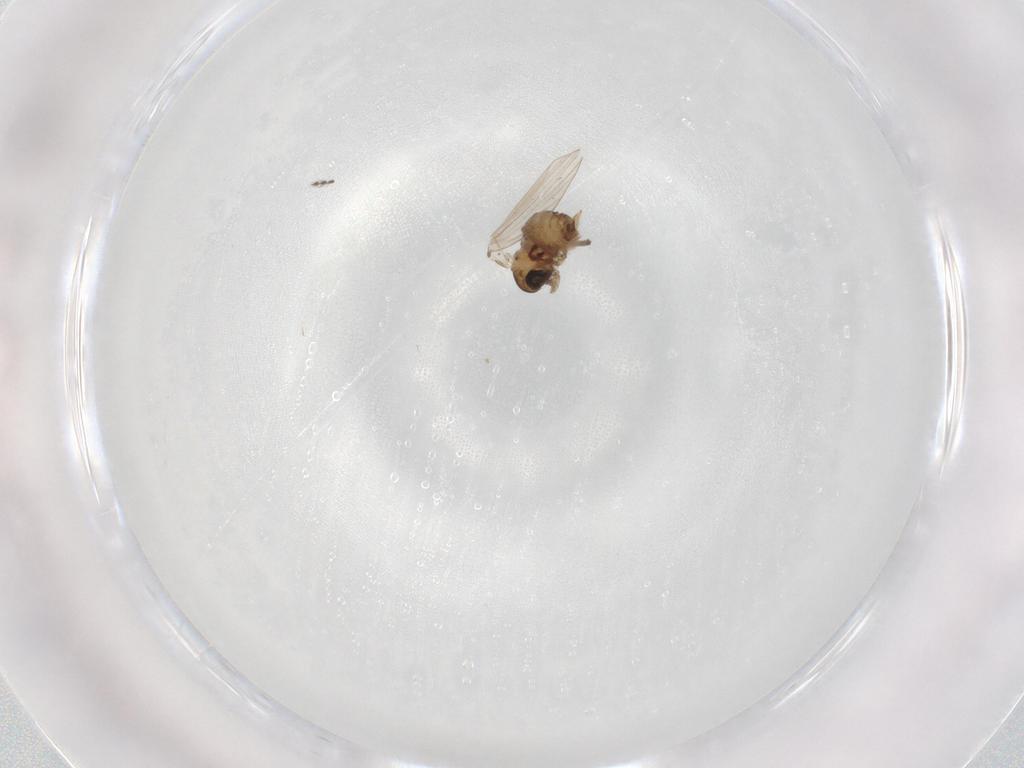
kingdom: Animalia
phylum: Arthropoda
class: Insecta
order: Diptera
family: Psychodidae
